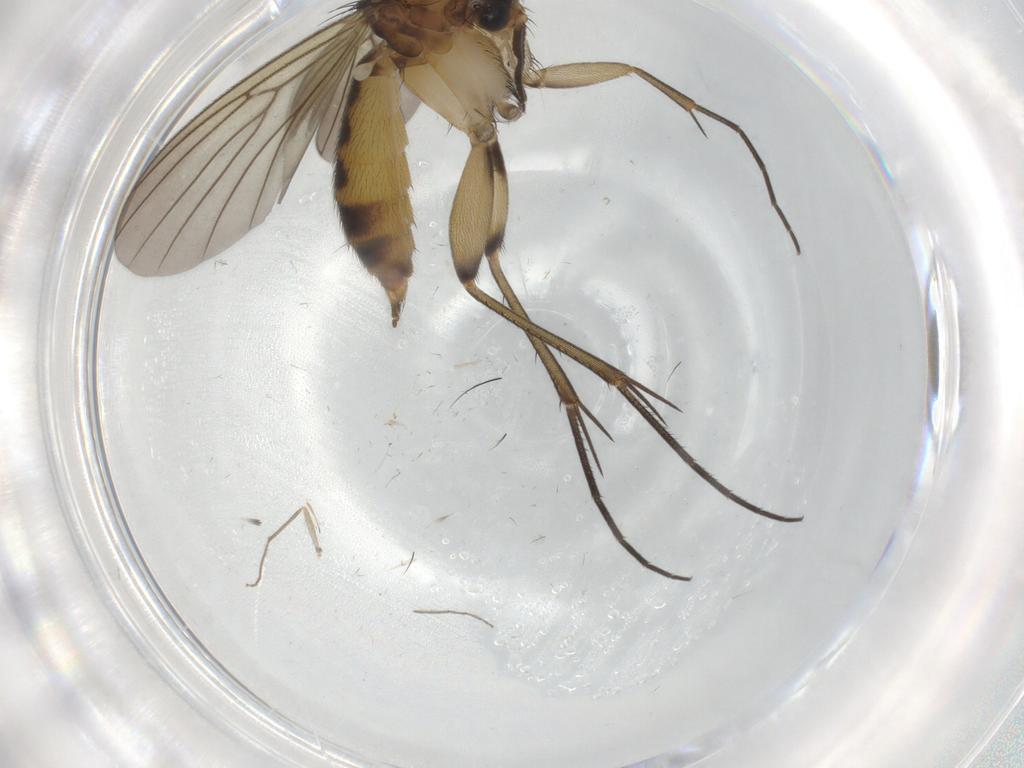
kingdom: Animalia
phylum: Arthropoda
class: Insecta
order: Diptera
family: Mycetophilidae
